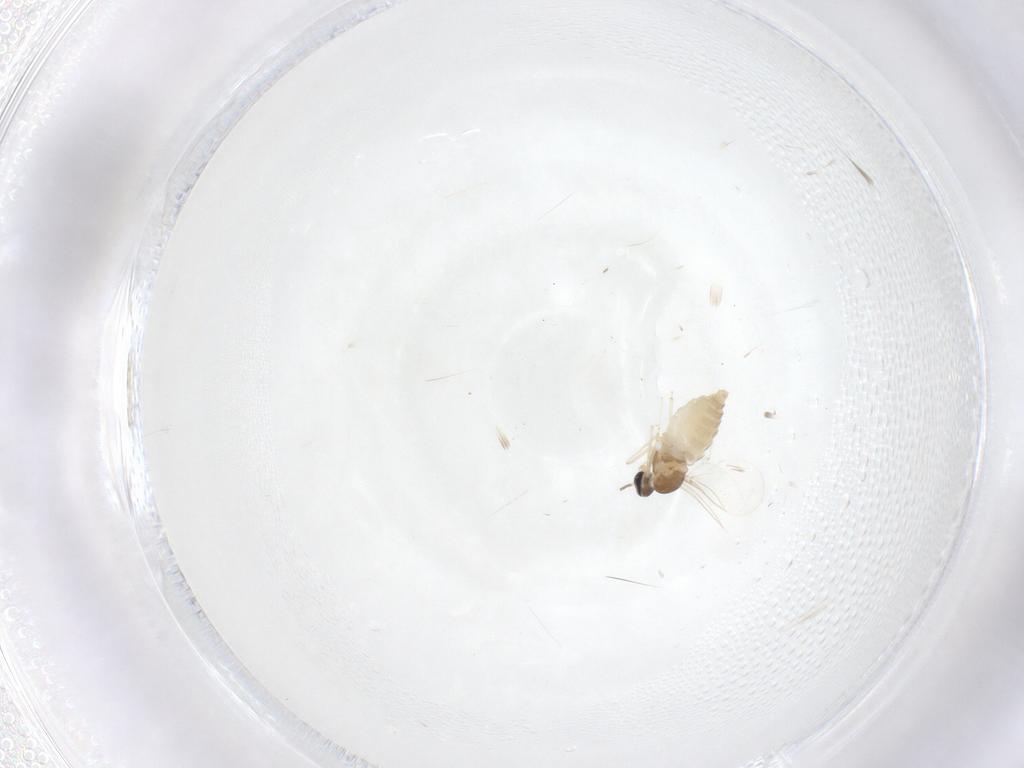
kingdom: Animalia
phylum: Arthropoda
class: Insecta
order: Diptera
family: Cecidomyiidae
